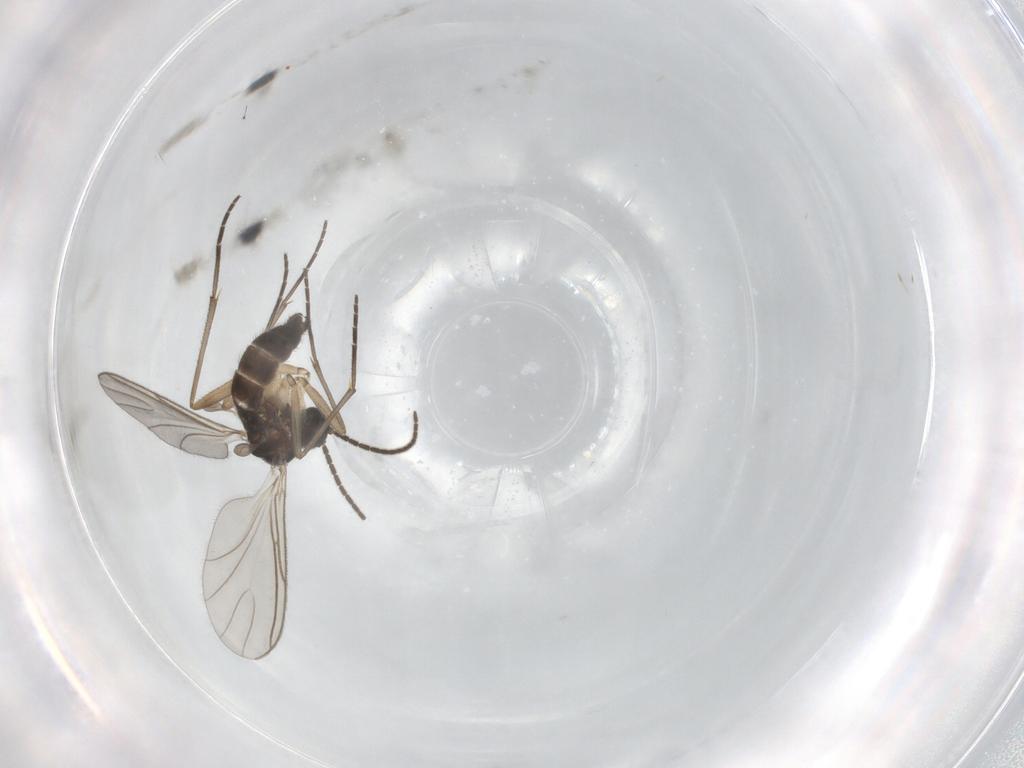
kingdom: Animalia
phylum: Arthropoda
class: Insecta
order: Diptera
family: Sciaridae
